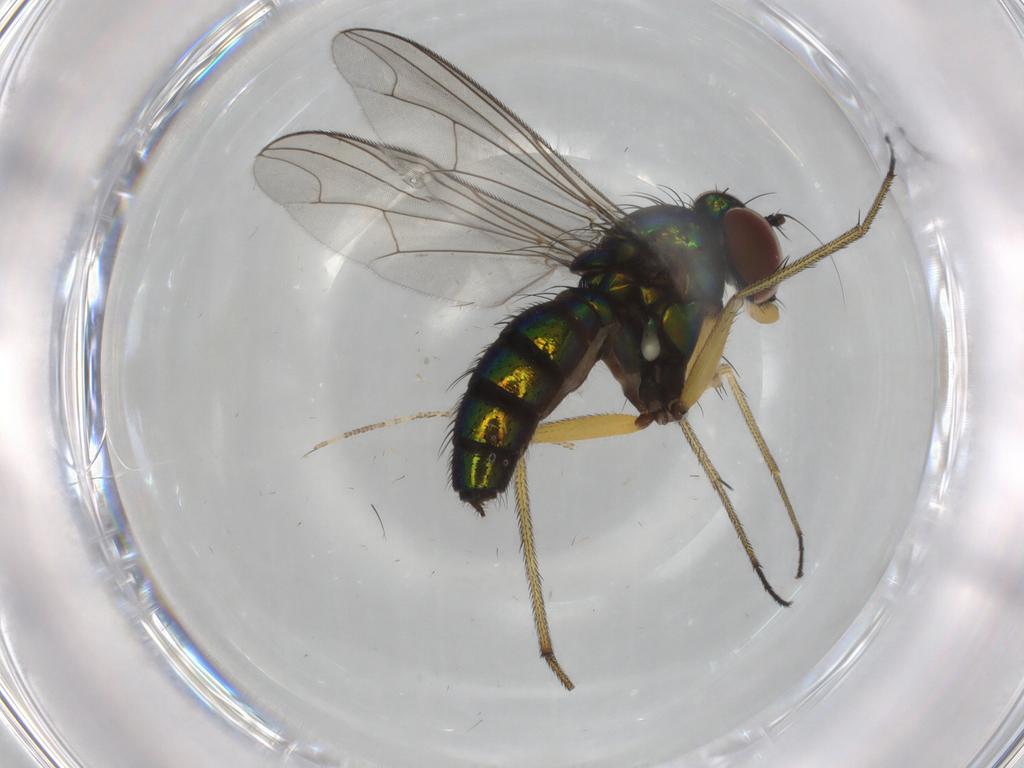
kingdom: Animalia
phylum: Arthropoda
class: Insecta
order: Diptera
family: Dolichopodidae
